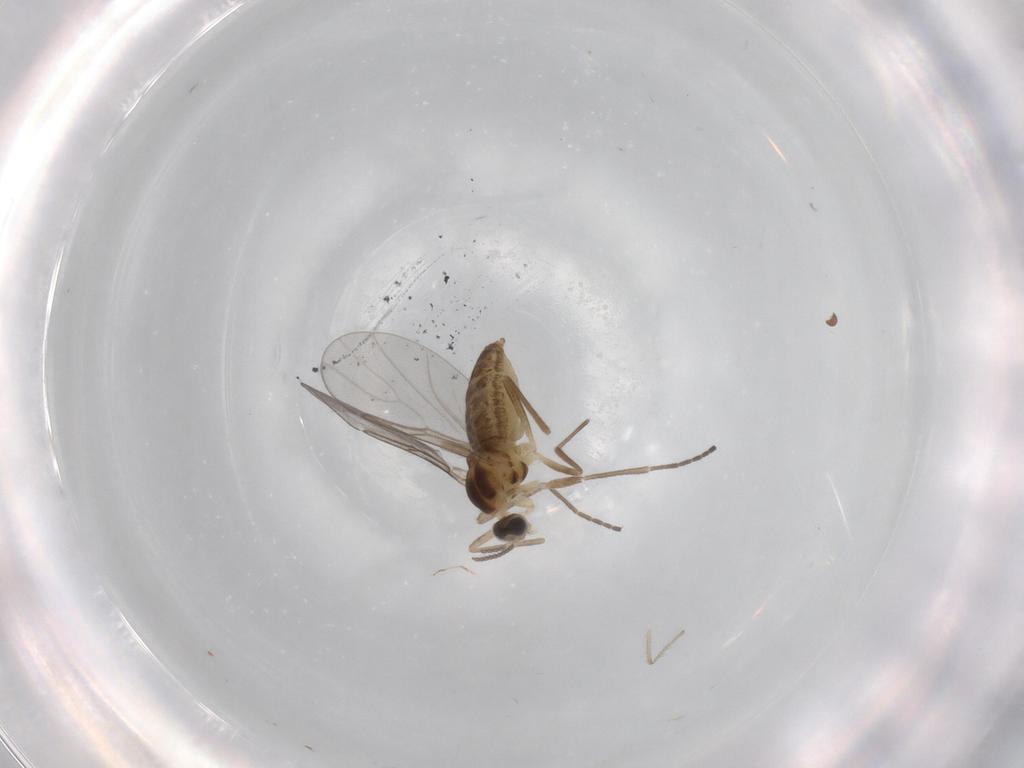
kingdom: Animalia
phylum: Arthropoda
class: Insecta
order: Diptera
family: Chironomidae
